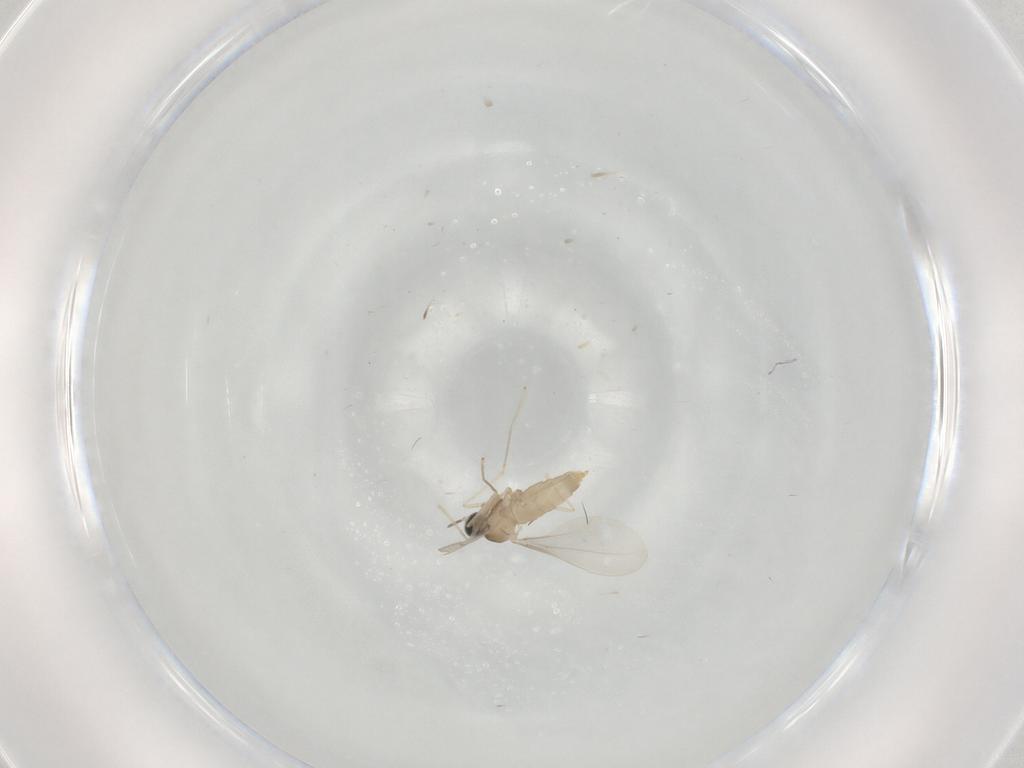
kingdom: Animalia
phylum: Arthropoda
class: Insecta
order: Diptera
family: Cecidomyiidae
